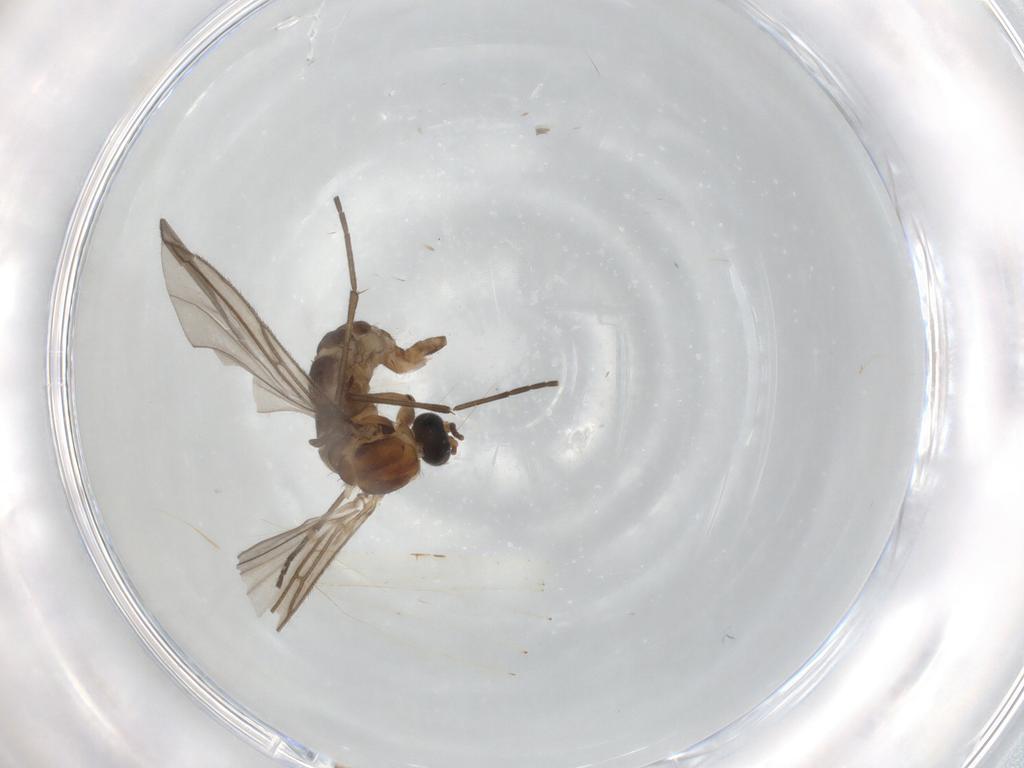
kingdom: Animalia
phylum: Arthropoda
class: Insecta
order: Diptera
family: Sciaridae
